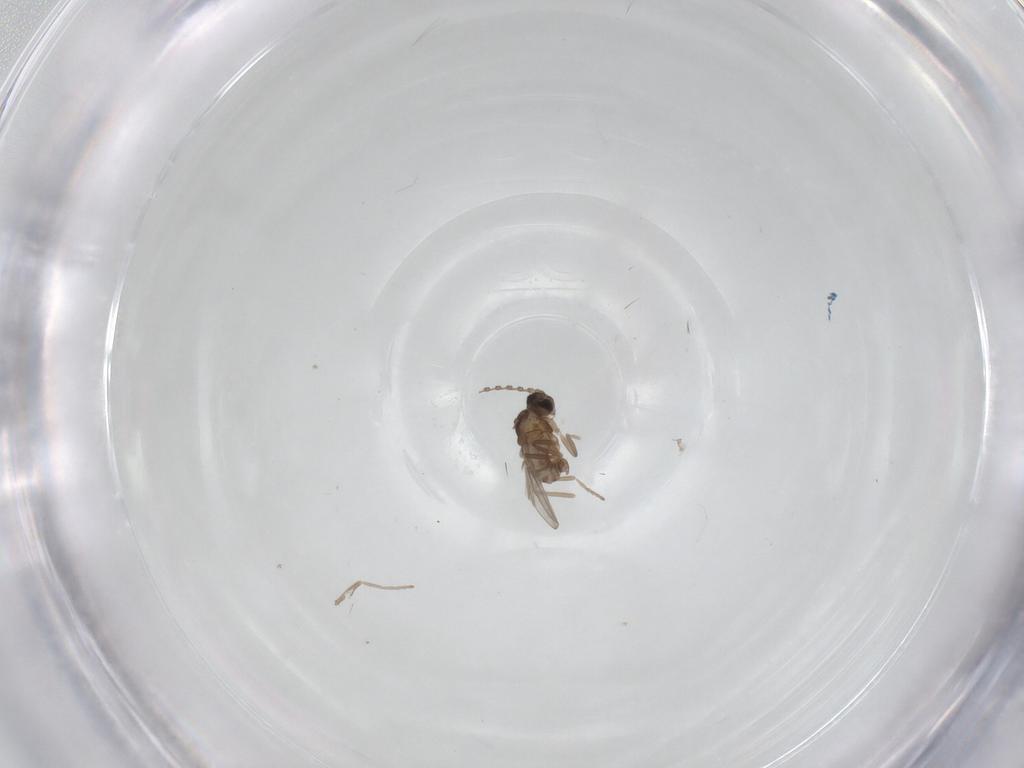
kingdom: Animalia
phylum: Arthropoda
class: Insecta
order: Diptera
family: Cecidomyiidae
